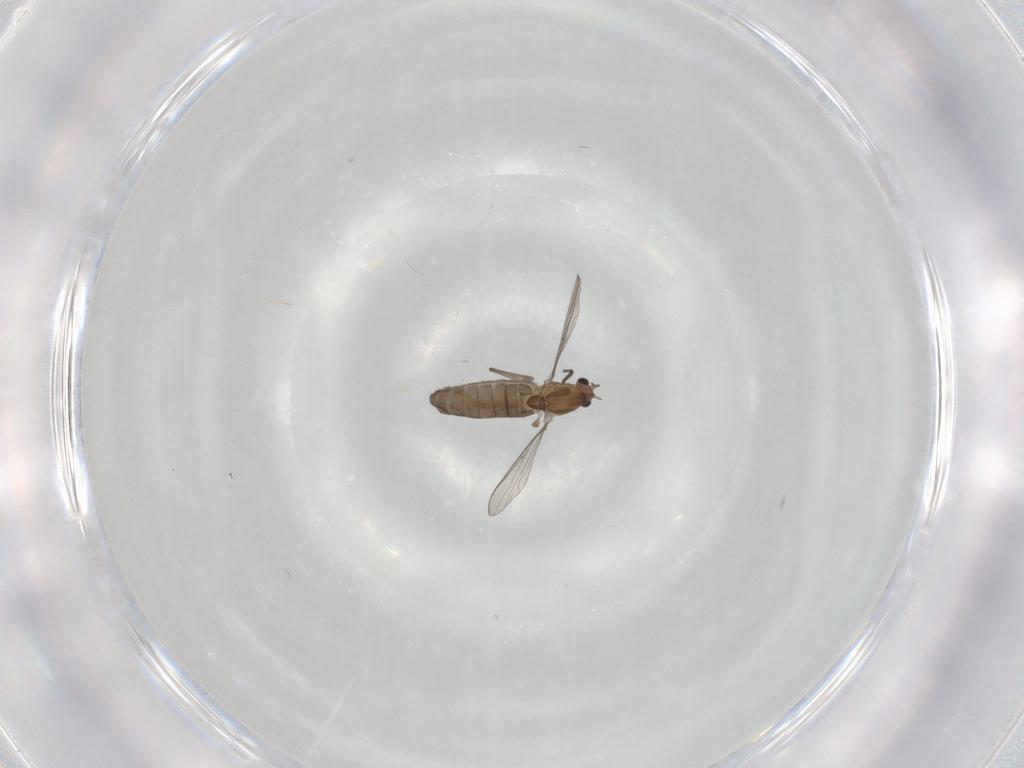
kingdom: Animalia
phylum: Arthropoda
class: Insecta
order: Diptera
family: Chironomidae
